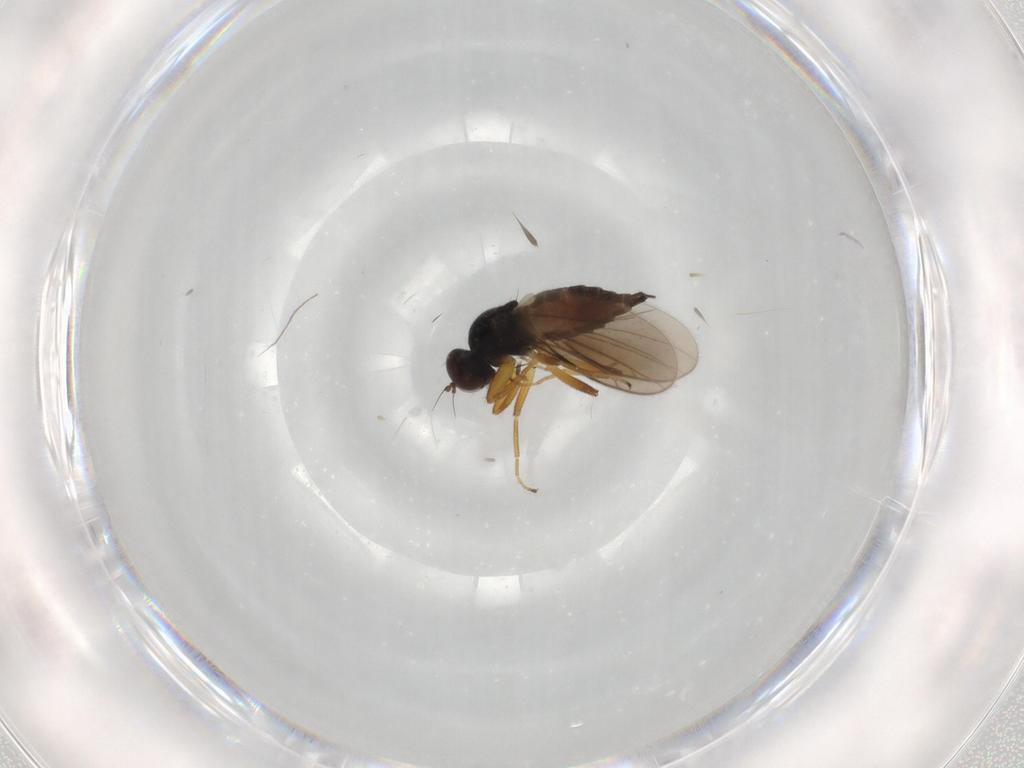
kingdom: Animalia
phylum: Arthropoda
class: Insecta
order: Diptera
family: Hybotidae
